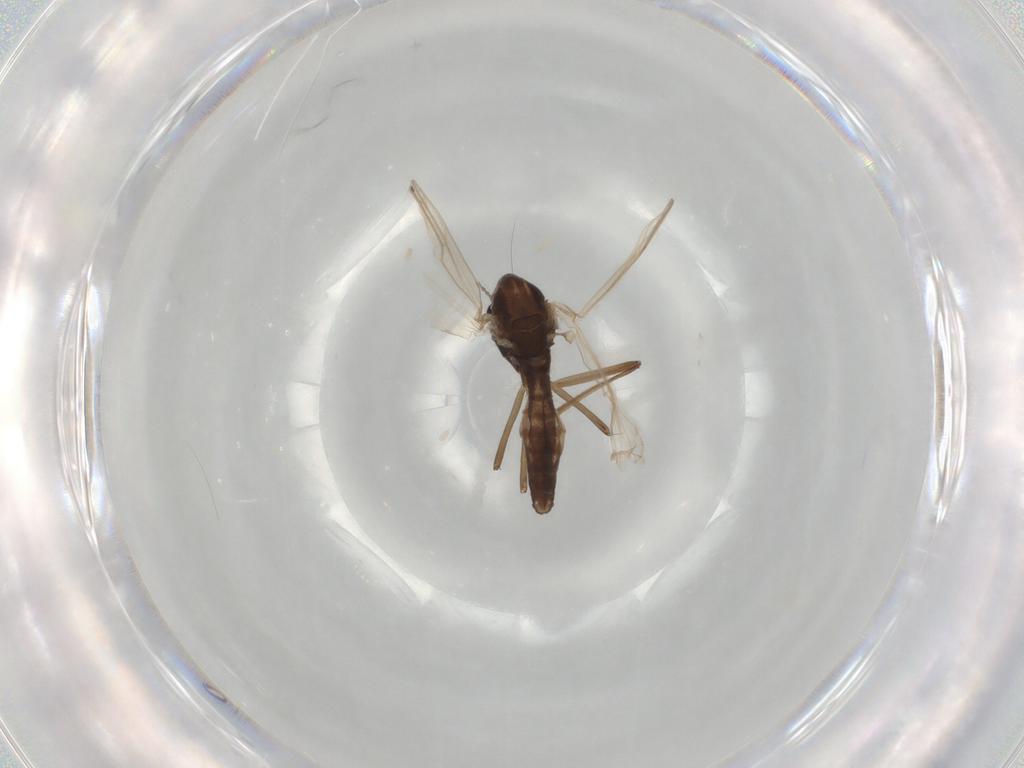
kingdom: Animalia
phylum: Arthropoda
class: Insecta
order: Diptera
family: Chironomidae
